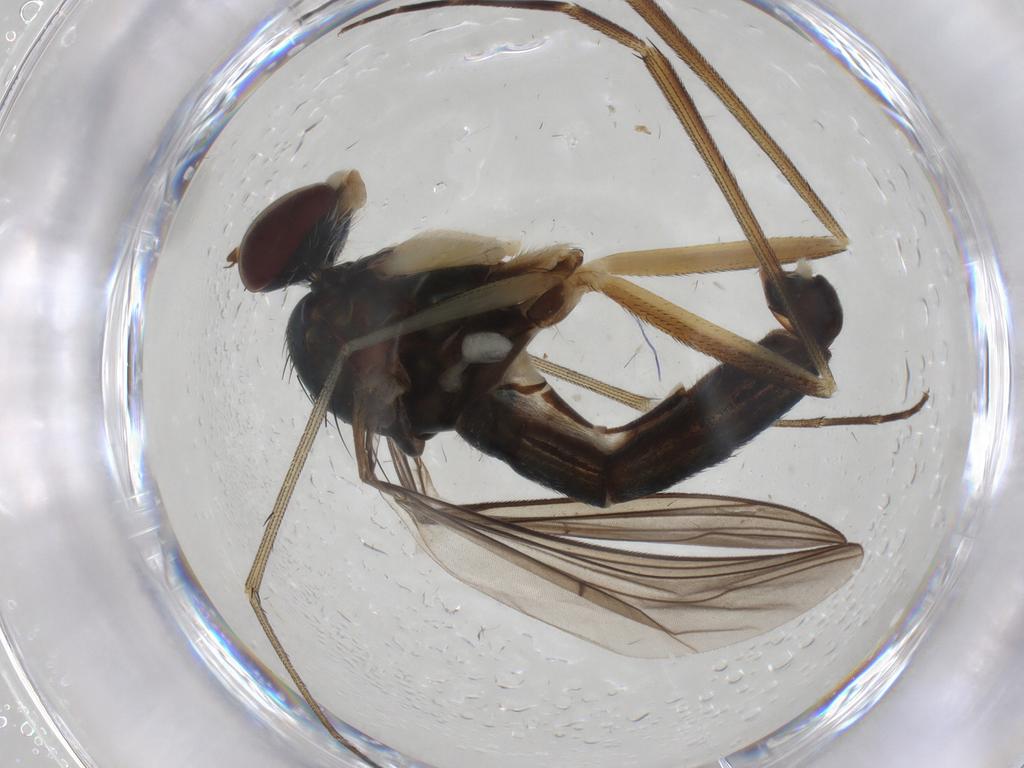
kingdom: Animalia
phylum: Arthropoda
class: Insecta
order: Diptera
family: Dolichopodidae
